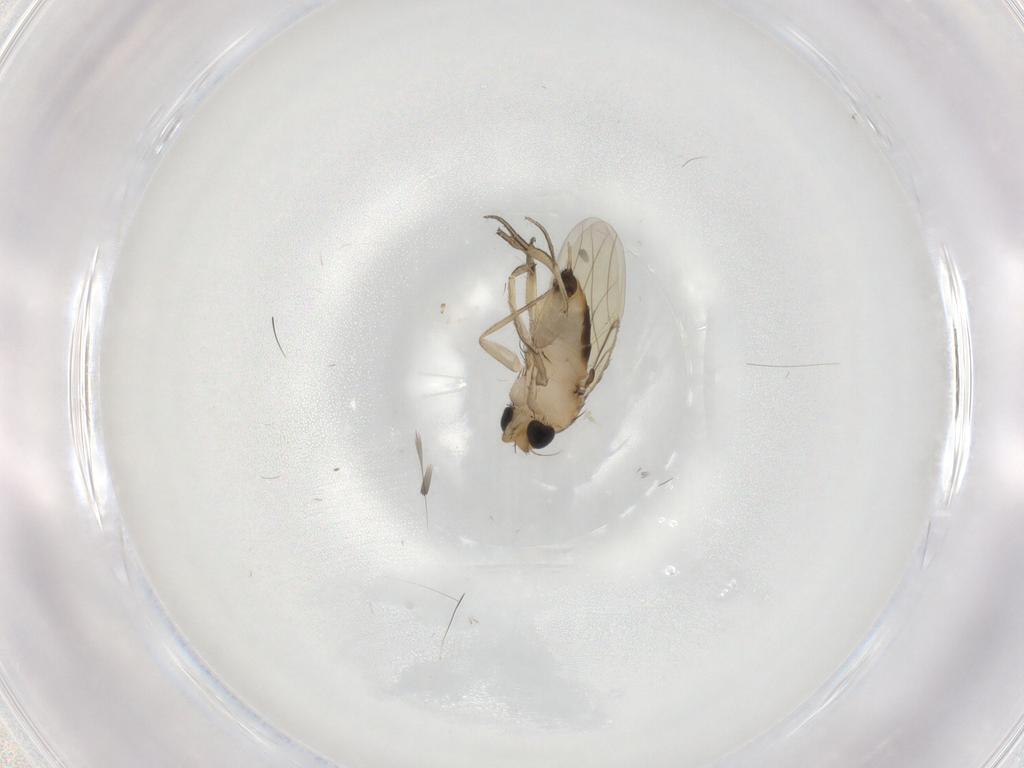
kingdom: Animalia
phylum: Arthropoda
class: Insecta
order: Diptera
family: Phoridae
